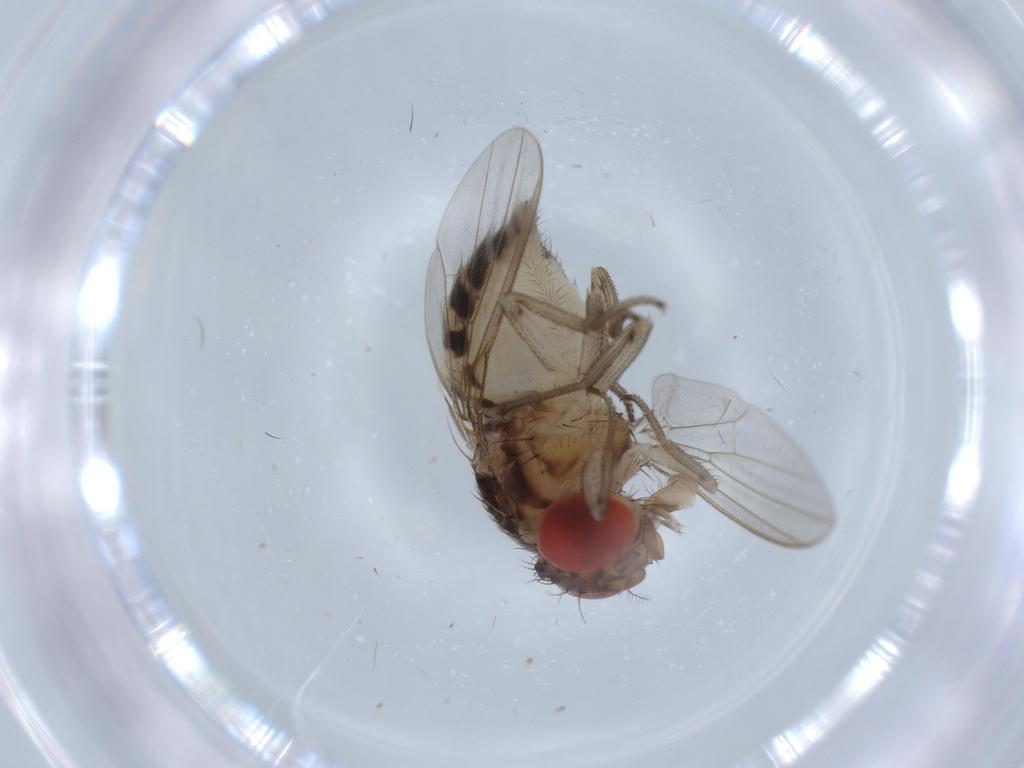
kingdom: Animalia
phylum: Arthropoda
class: Insecta
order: Diptera
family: Drosophilidae
